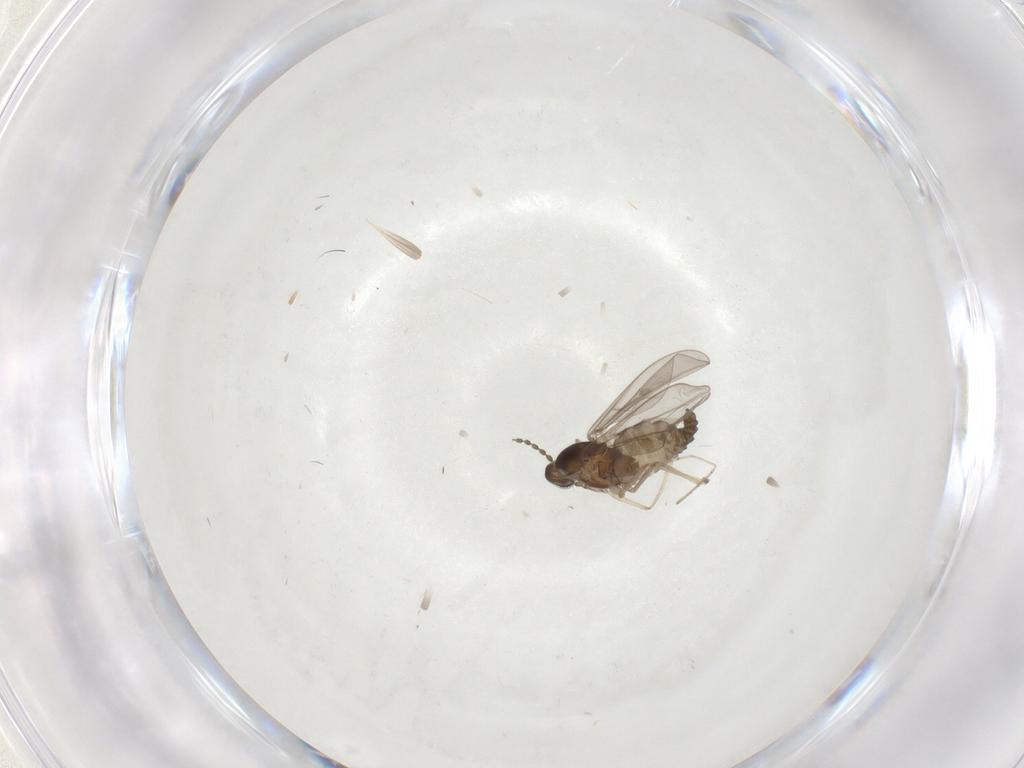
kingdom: Animalia
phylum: Arthropoda
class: Insecta
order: Diptera
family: Cecidomyiidae
